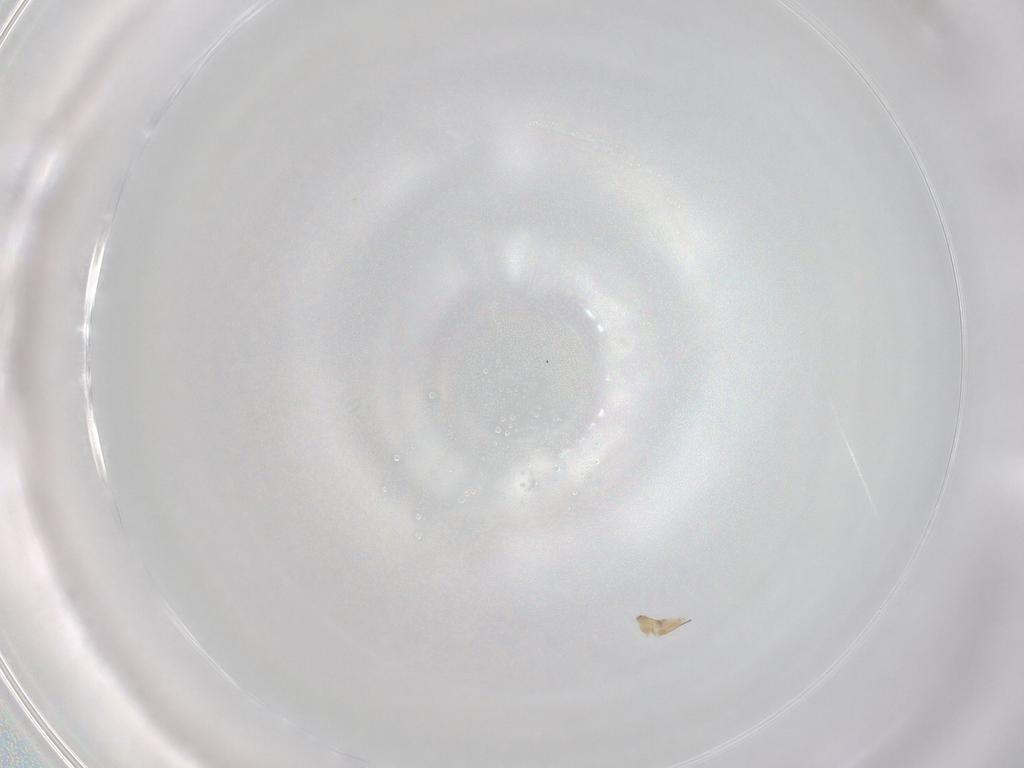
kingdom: Animalia
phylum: Arthropoda
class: Insecta
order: Hymenoptera
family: Mymaridae
